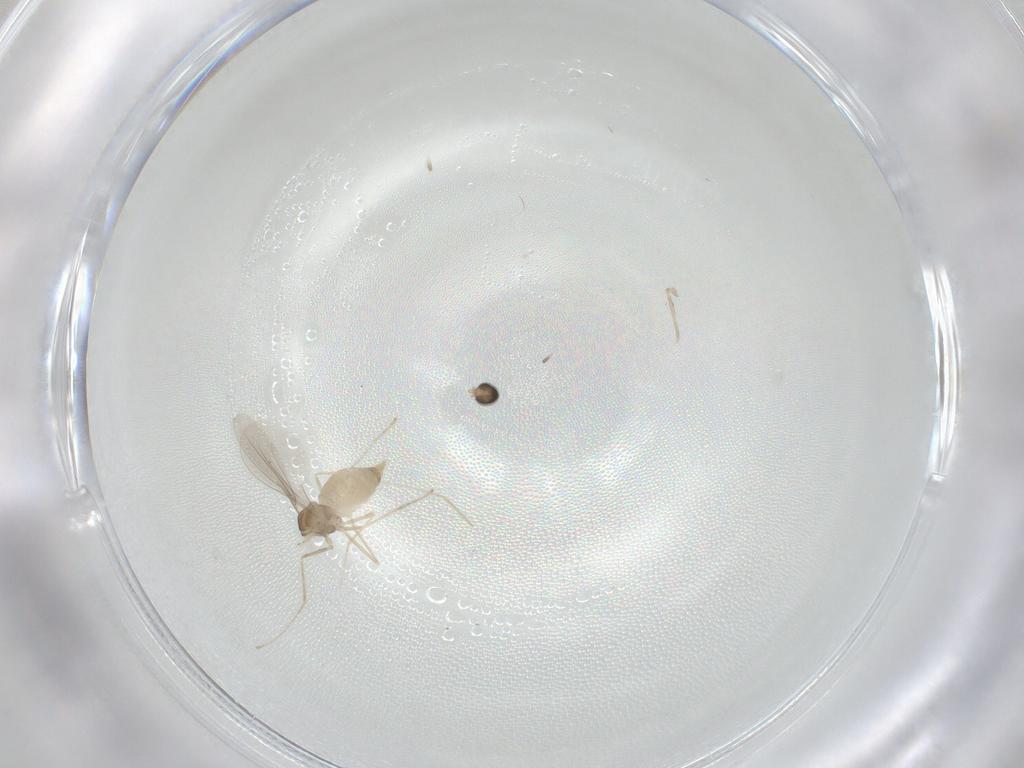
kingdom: Animalia
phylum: Arthropoda
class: Insecta
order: Diptera
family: Cecidomyiidae
